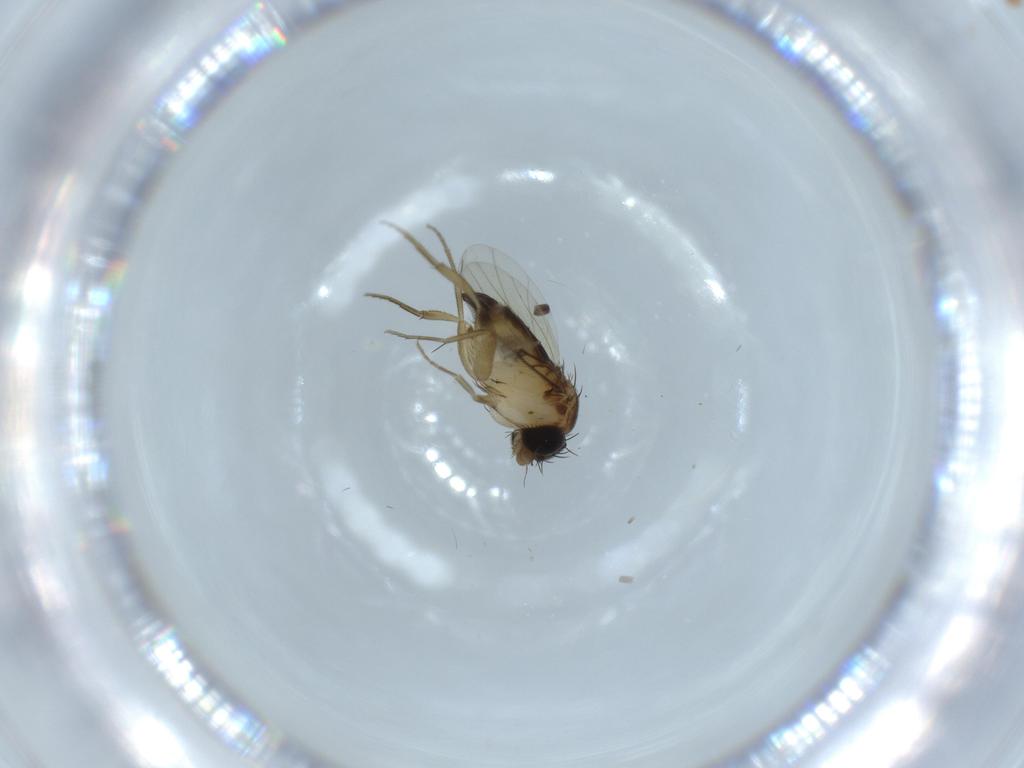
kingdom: Animalia
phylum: Arthropoda
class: Insecta
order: Diptera
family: Phoridae
